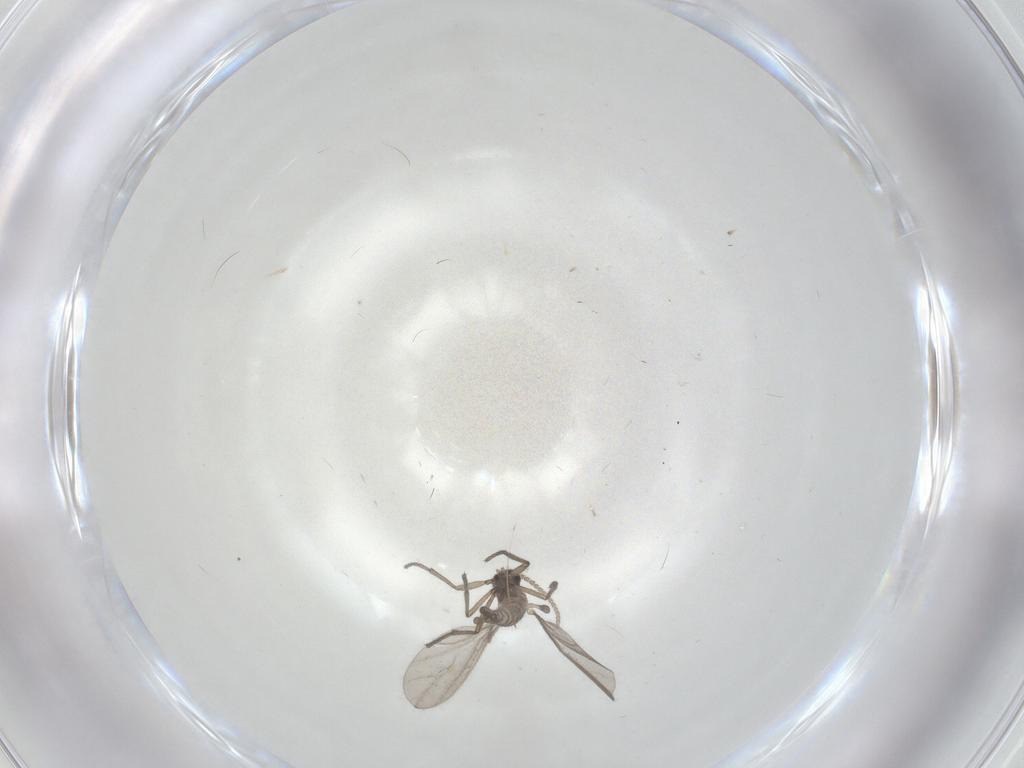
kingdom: Animalia
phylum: Arthropoda
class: Insecta
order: Diptera
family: Sciaridae
